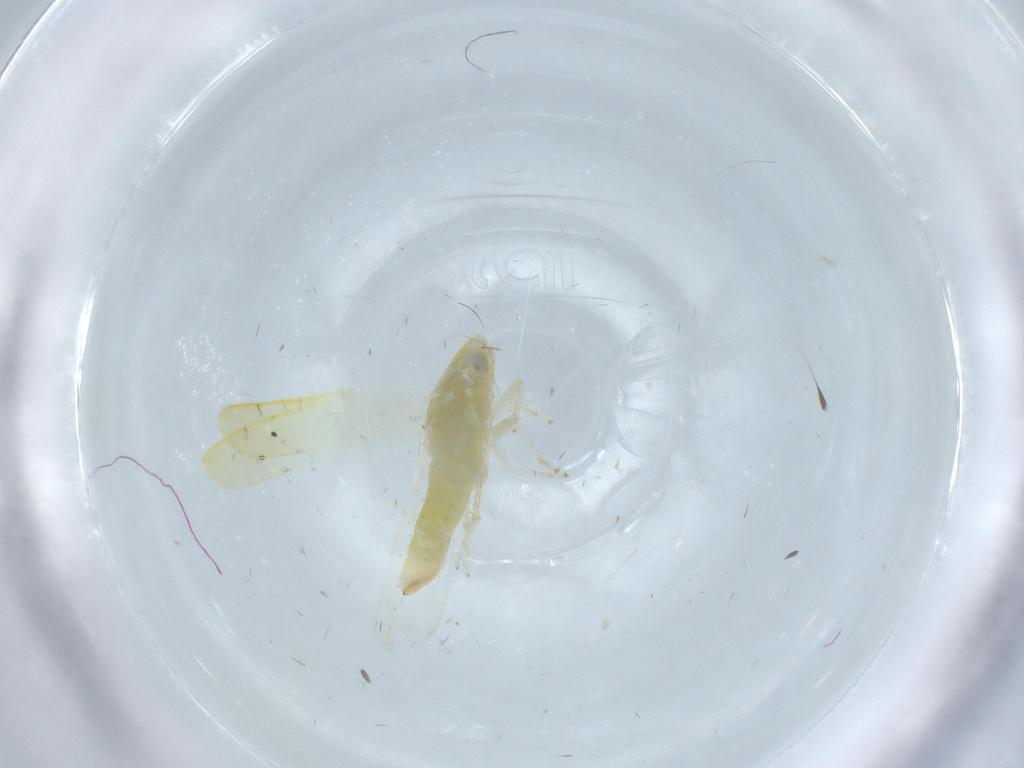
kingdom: Animalia
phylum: Arthropoda
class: Insecta
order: Hemiptera
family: Cicadellidae
